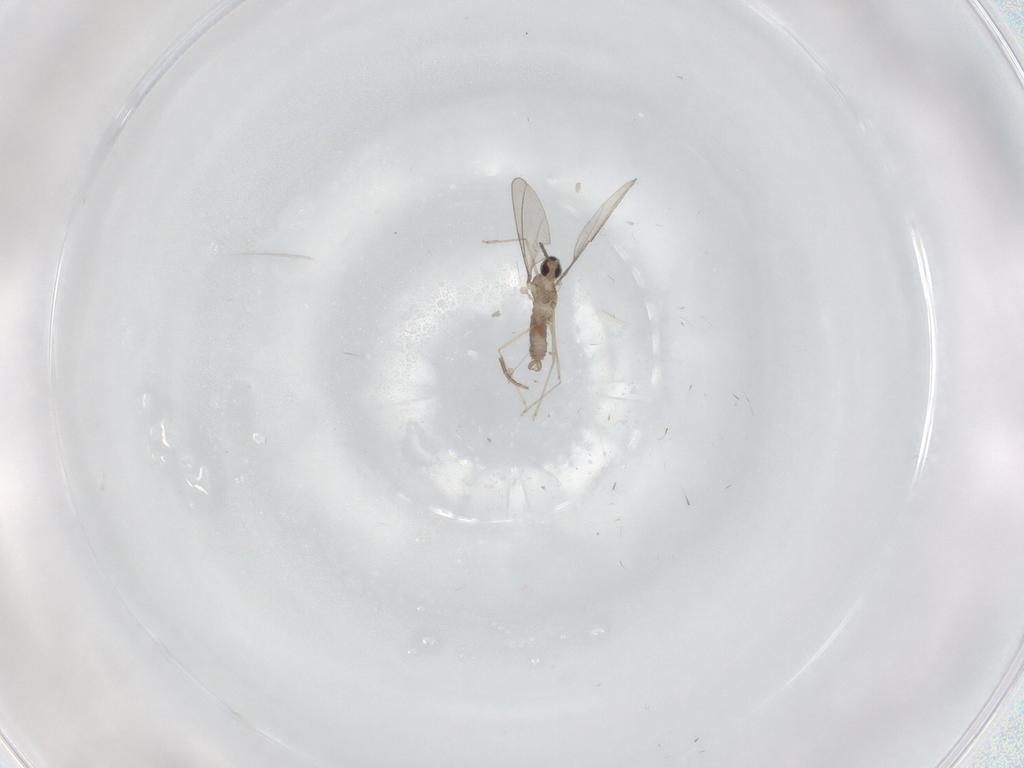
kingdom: Animalia
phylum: Arthropoda
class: Insecta
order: Diptera
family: Cecidomyiidae
